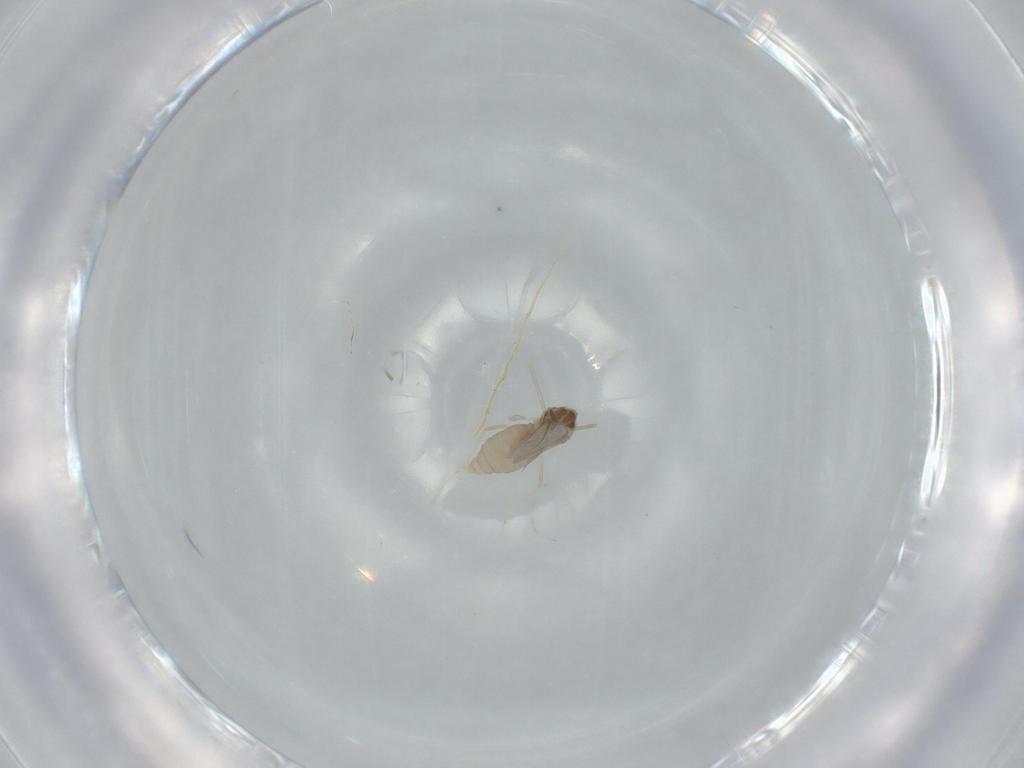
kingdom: Animalia
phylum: Arthropoda
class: Insecta
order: Diptera
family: Cecidomyiidae
